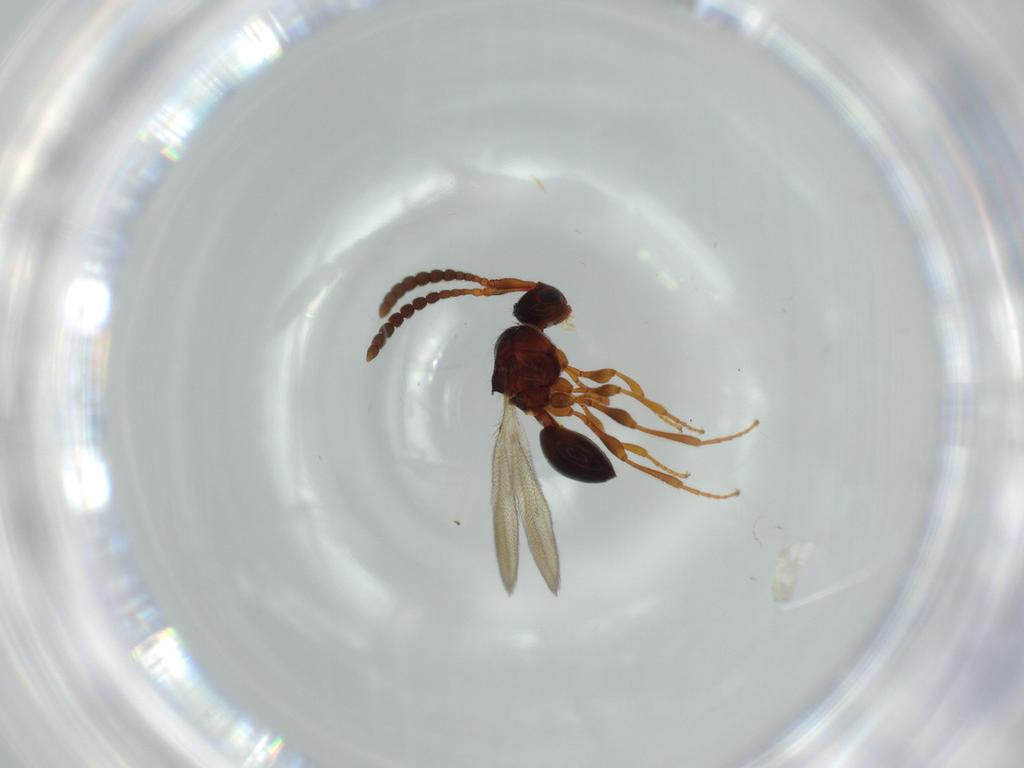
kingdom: Animalia
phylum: Arthropoda
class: Insecta
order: Hymenoptera
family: Diapriidae
